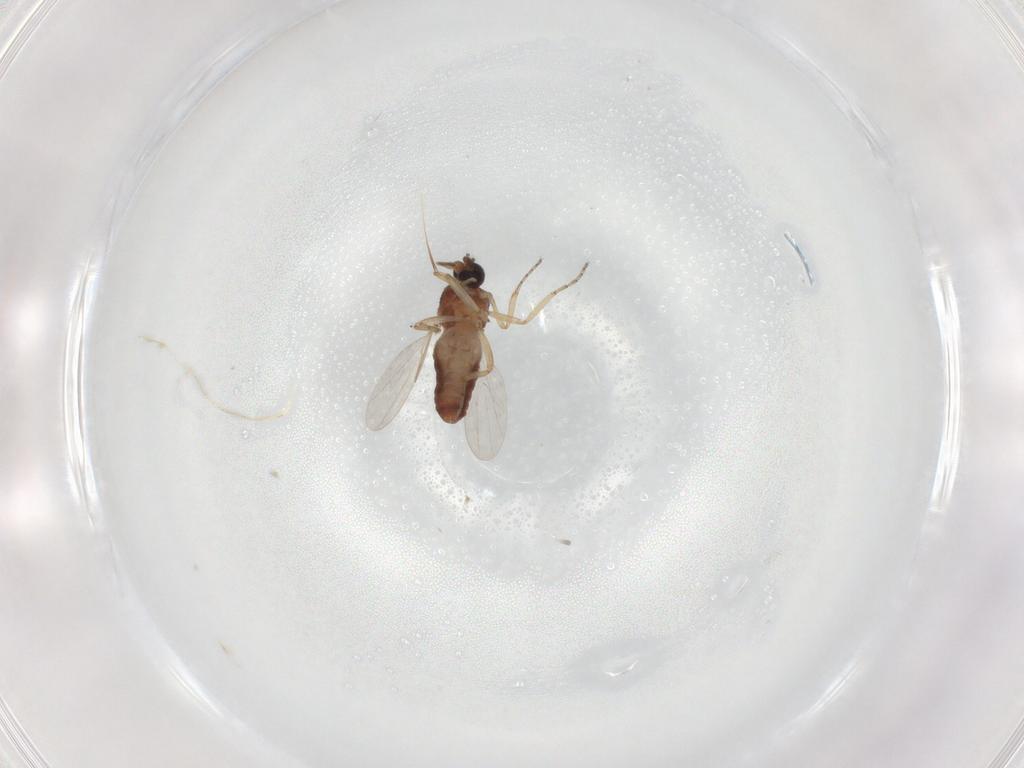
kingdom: Animalia
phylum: Arthropoda
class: Insecta
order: Diptera
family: Ceratopogonidae
